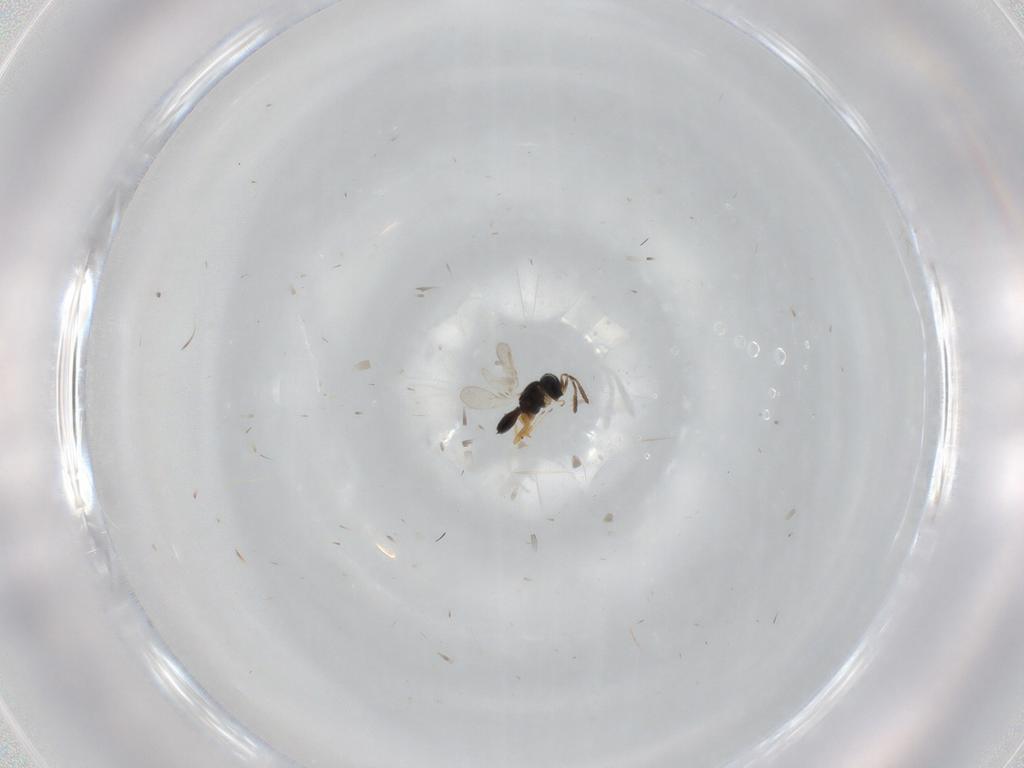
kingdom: Animalia
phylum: Arthropoda
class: Insecta
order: Hymenoptera
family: Scelionidae
